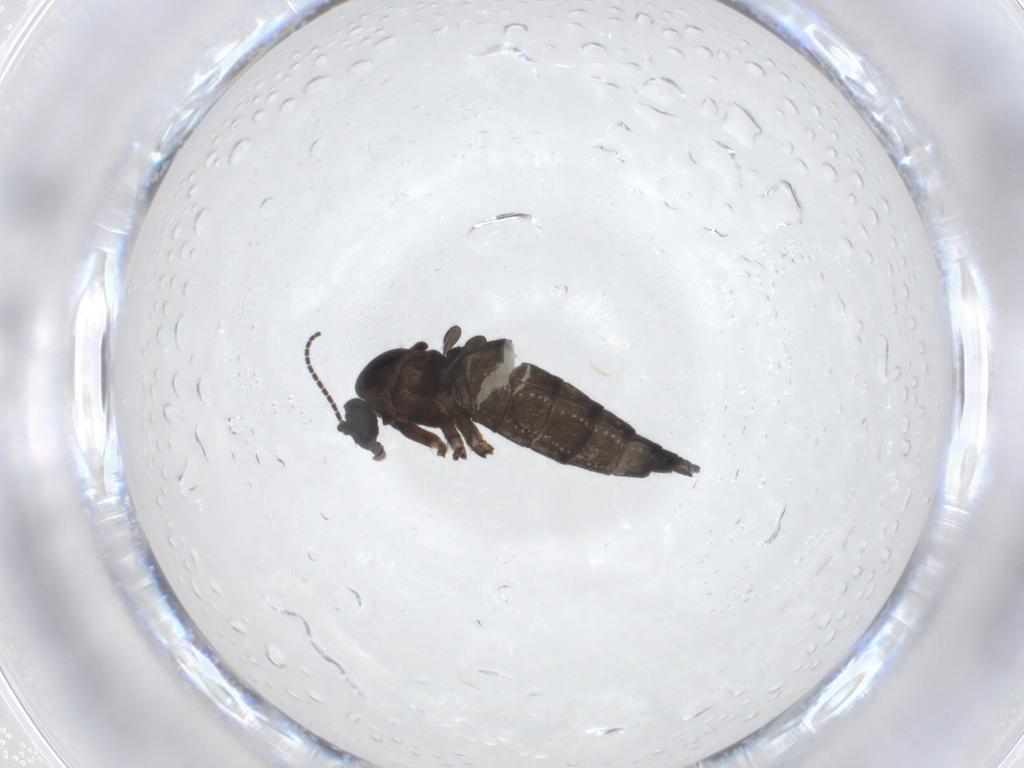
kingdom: Animalia
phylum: Arthropoda
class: Insecta
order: Diptera
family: Sciaridae
